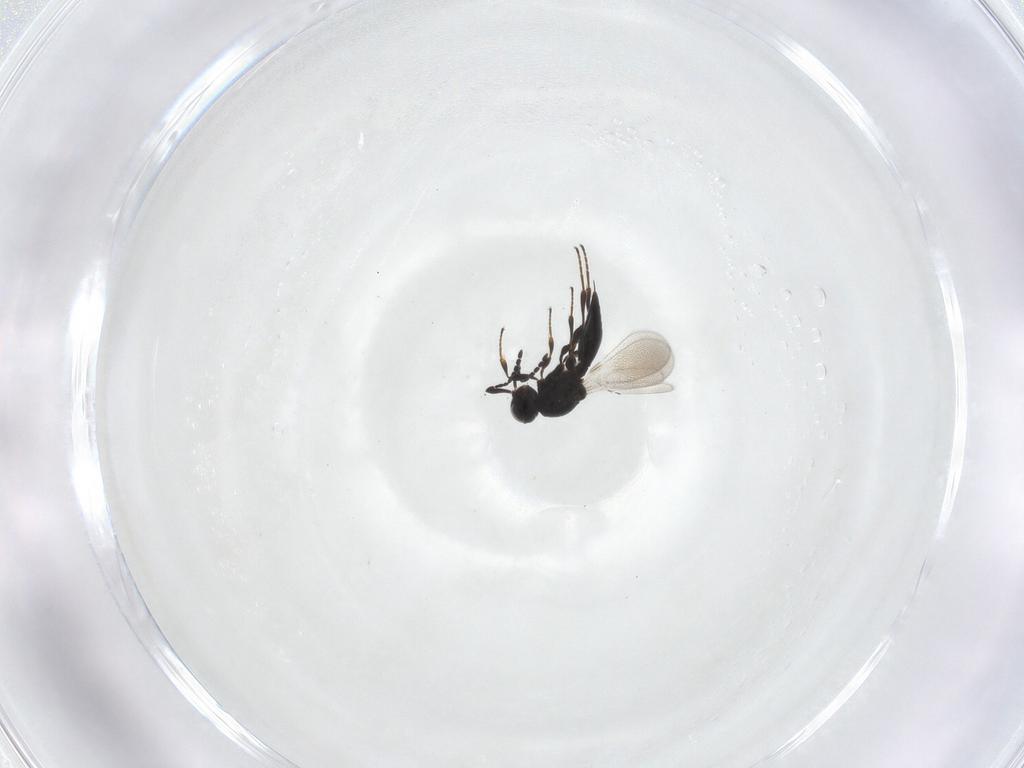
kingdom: Animalia
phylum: Arthropoda
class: Insecta
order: Hymenoptera
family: Platygastridae
